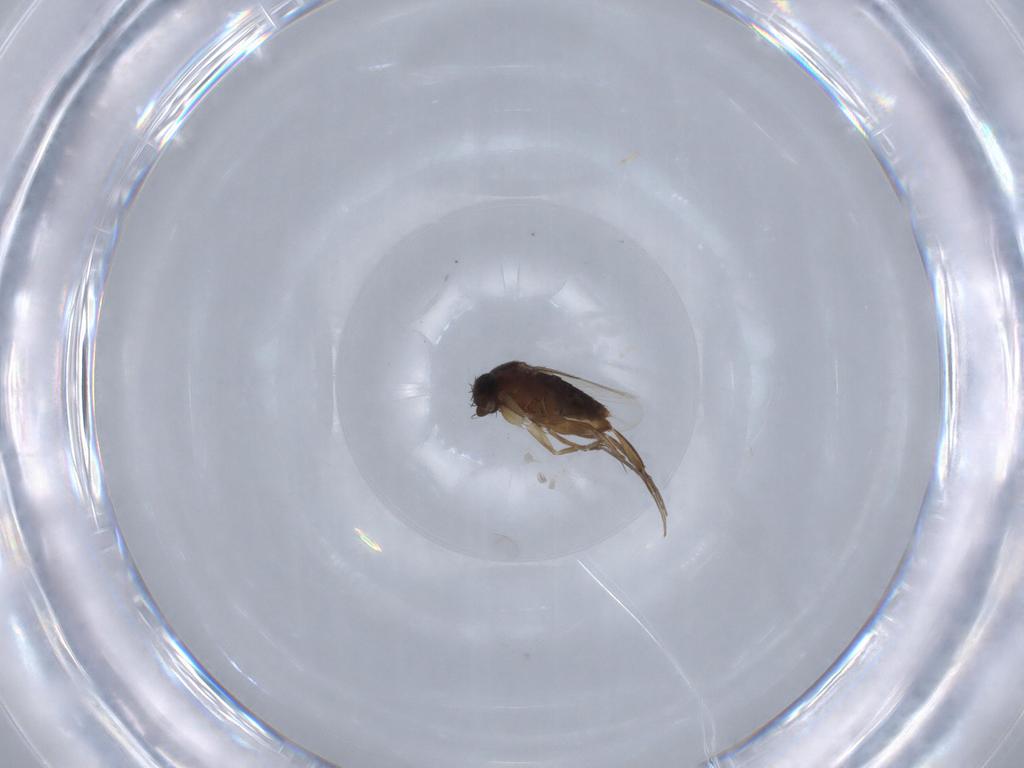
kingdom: Animalia
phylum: Arthropoda
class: Insecta
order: Diptera
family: Phoridae
